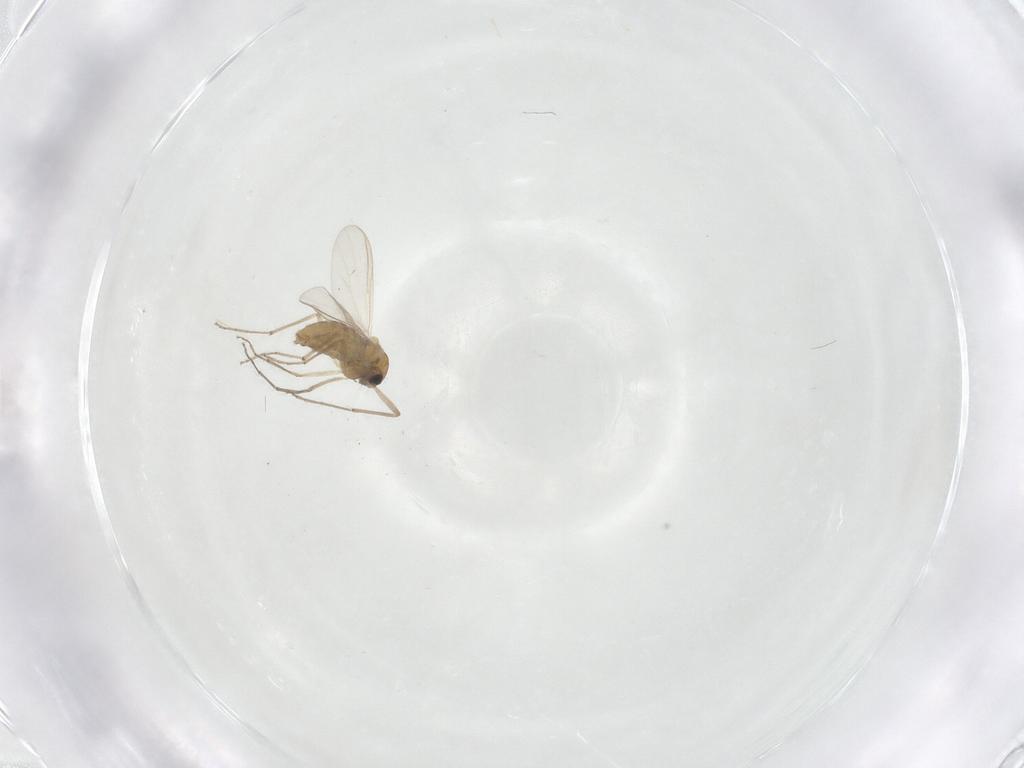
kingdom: Animalia
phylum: Arthropoda
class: Insecta
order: Diptera
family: Chironomidae
